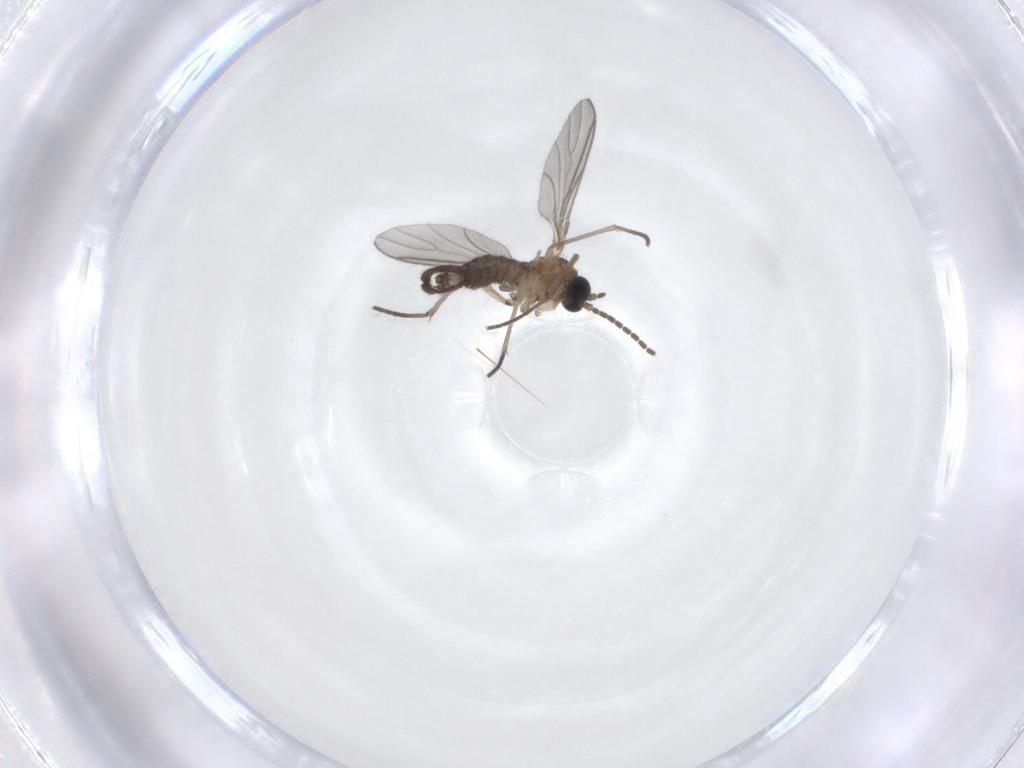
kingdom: Animalia
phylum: Arthropoda
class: Insecta
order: Diptera
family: Sciaridae
